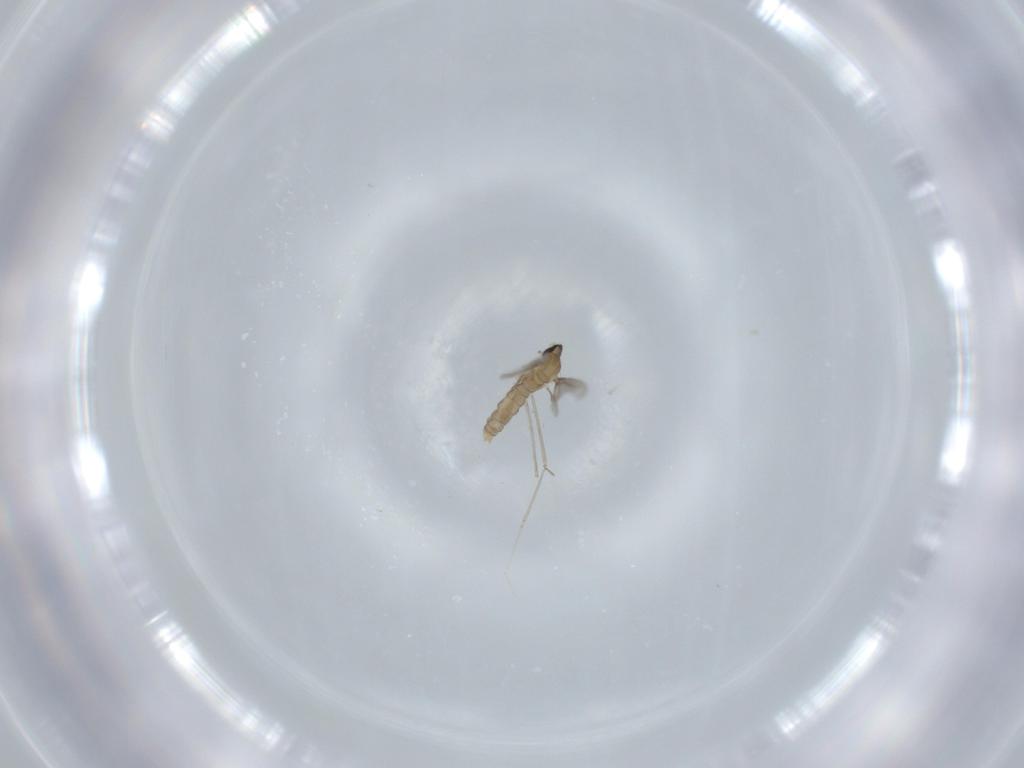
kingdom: Animalia
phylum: Arthropoda
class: Insecta
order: Diptera
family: Cecidomyiidae
